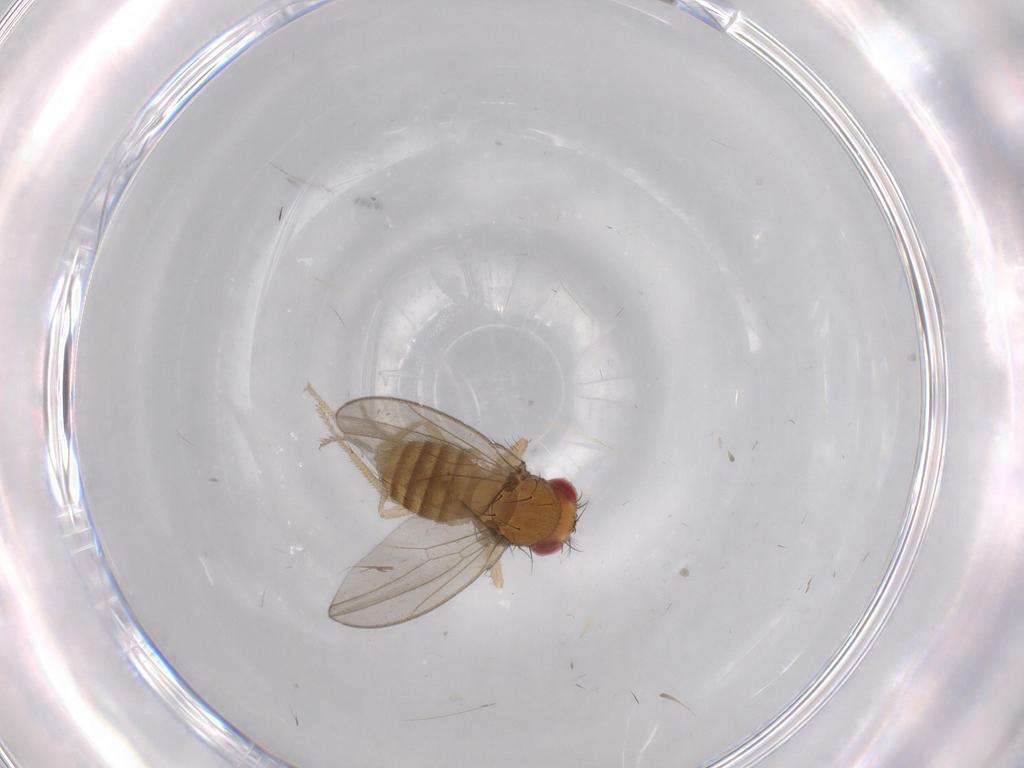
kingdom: Animalia
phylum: Arthropoda
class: Insecta
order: Diptera
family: Drosophilidae
